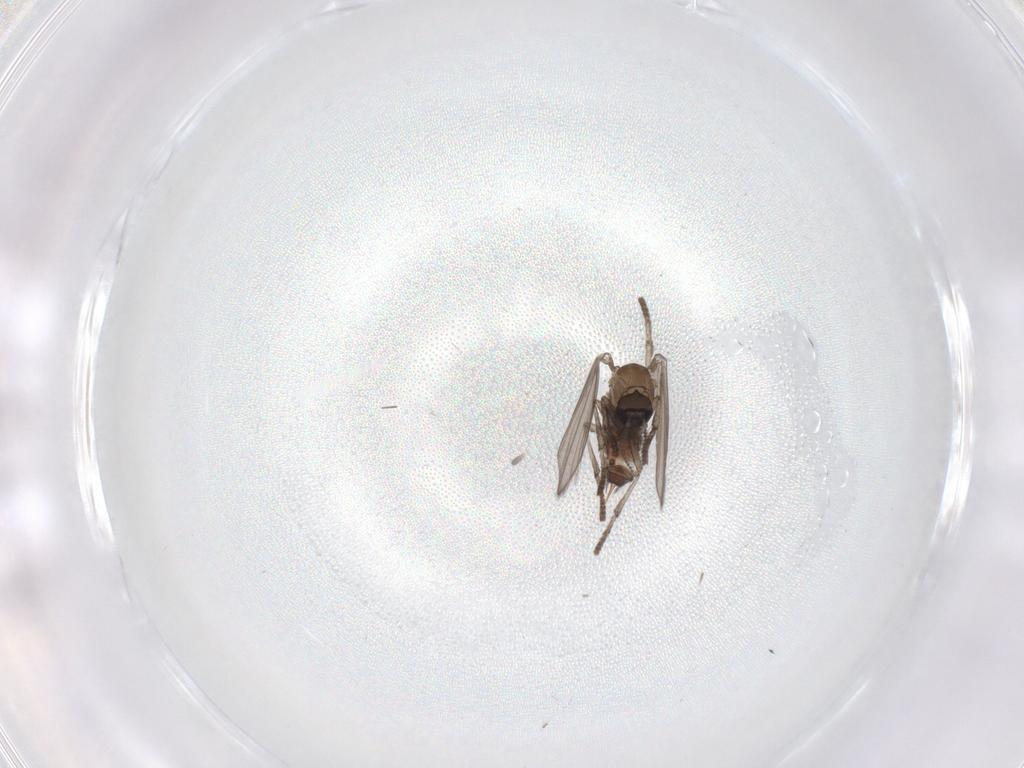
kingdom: Animalia
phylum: Arthropoda
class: Insecta
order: Diptera
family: Psychodidae
